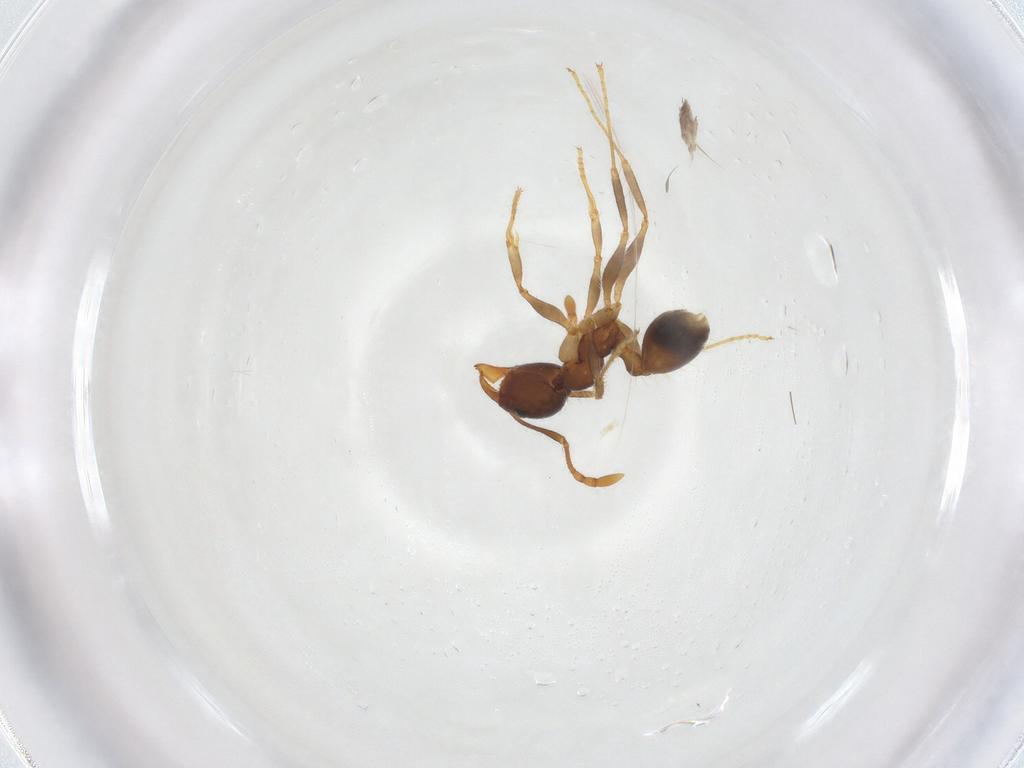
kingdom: Animalia
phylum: Arthropoda
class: Insecta
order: Hymenoptera
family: Formicidae
